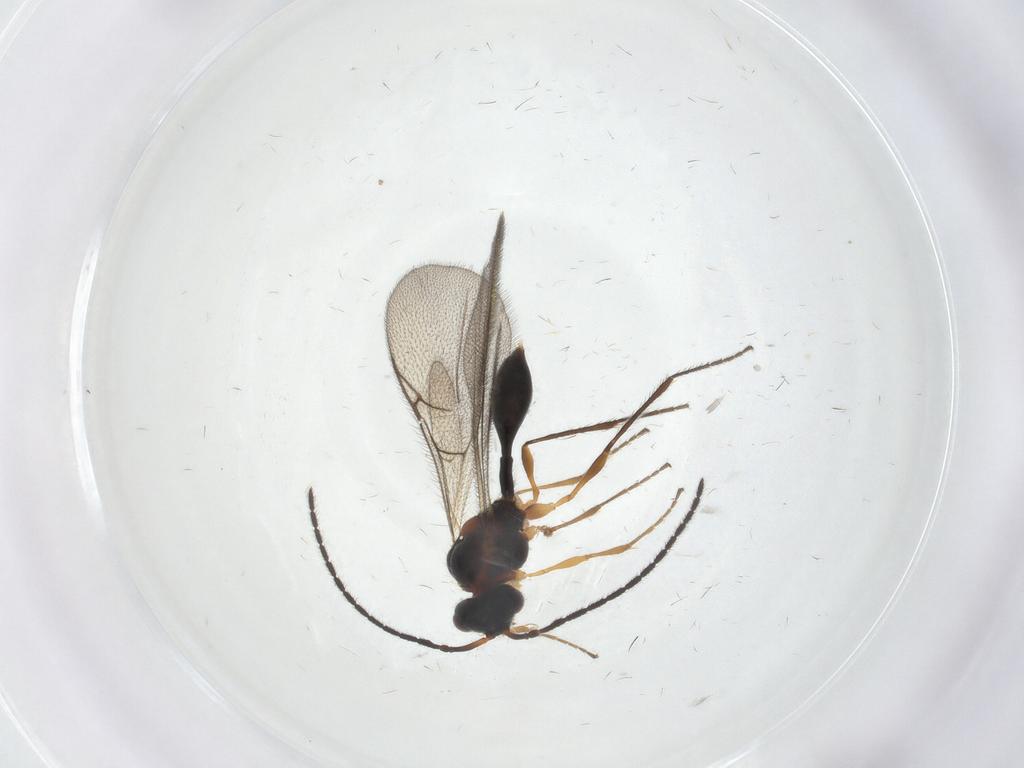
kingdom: Animalia
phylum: Arthropoda
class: Insecta
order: Hymenoptera
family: Diapriidae
